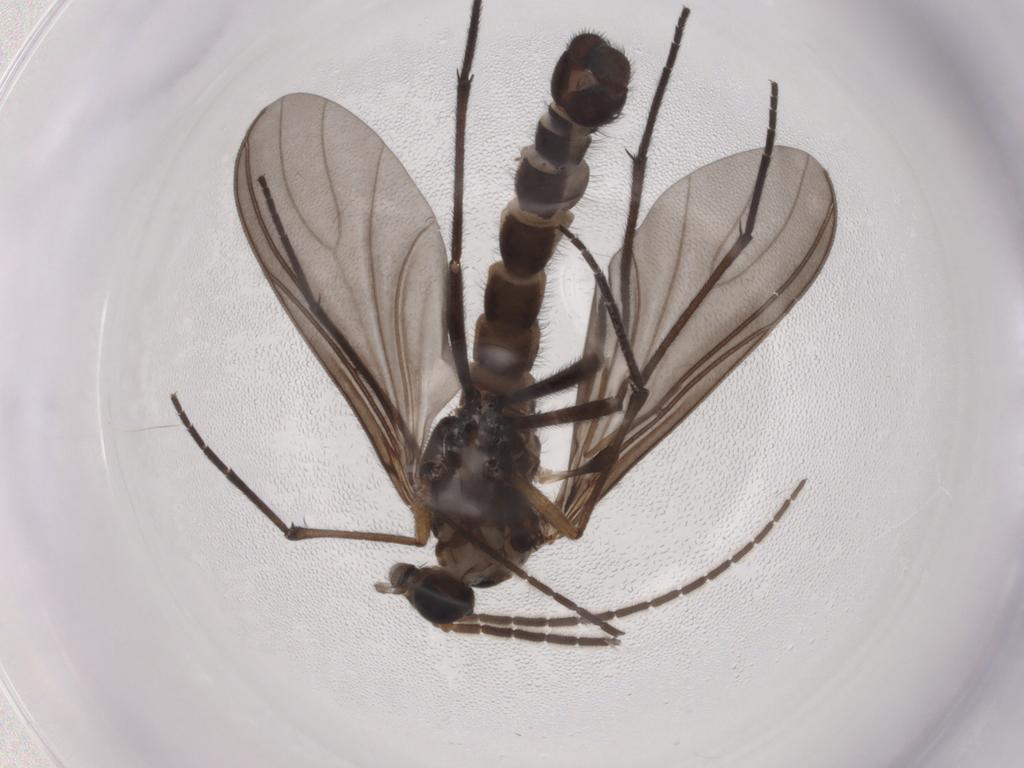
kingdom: Animalia
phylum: Arthropoda
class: Insecta
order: Diptera
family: Sciaridae
